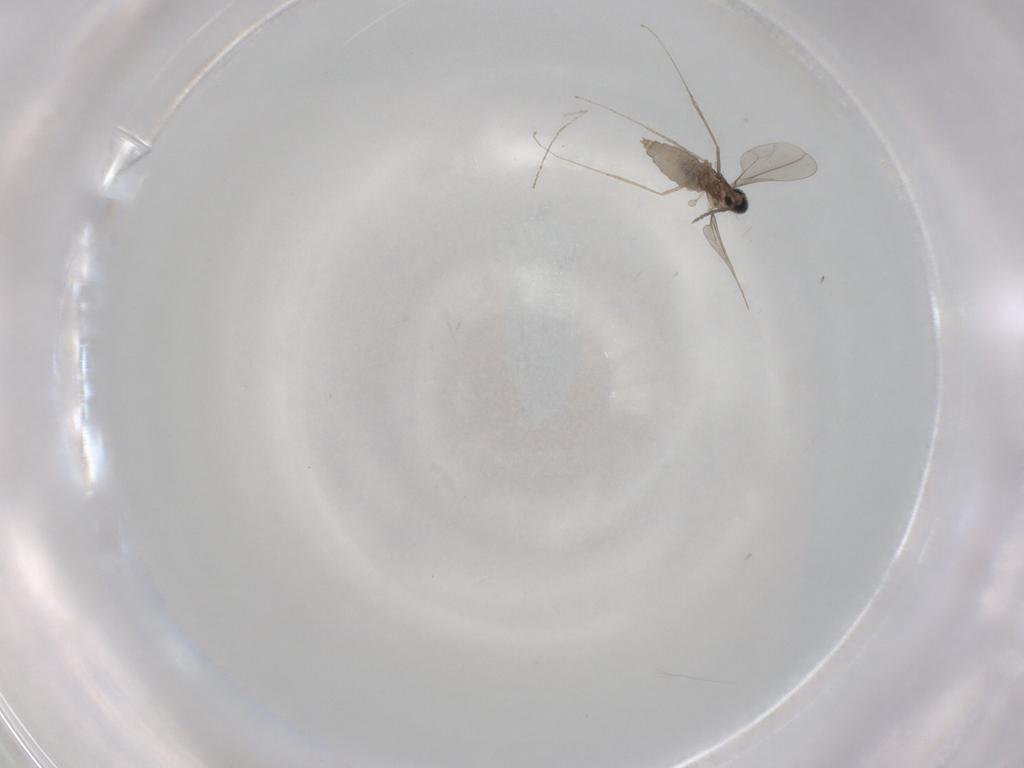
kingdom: Animalia
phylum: Arthropoda
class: Insecta
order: Diptera
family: Cecidomyiidae
